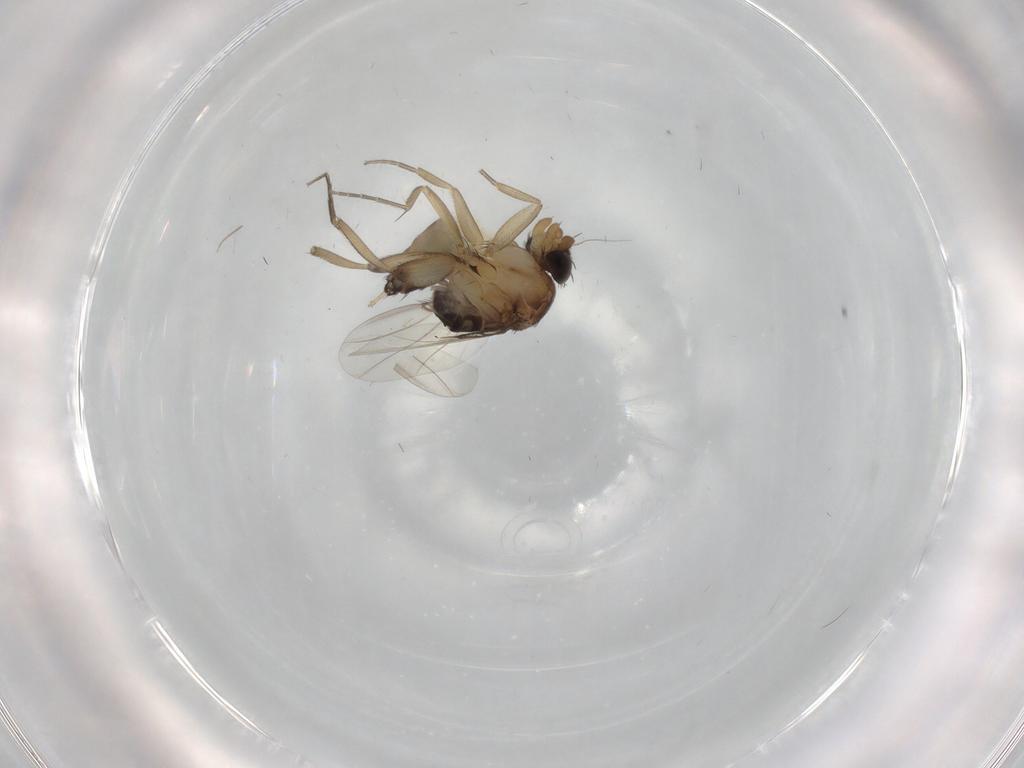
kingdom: Animalia
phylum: Arthropoda
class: Insecta
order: Diptera
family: Phoridae
